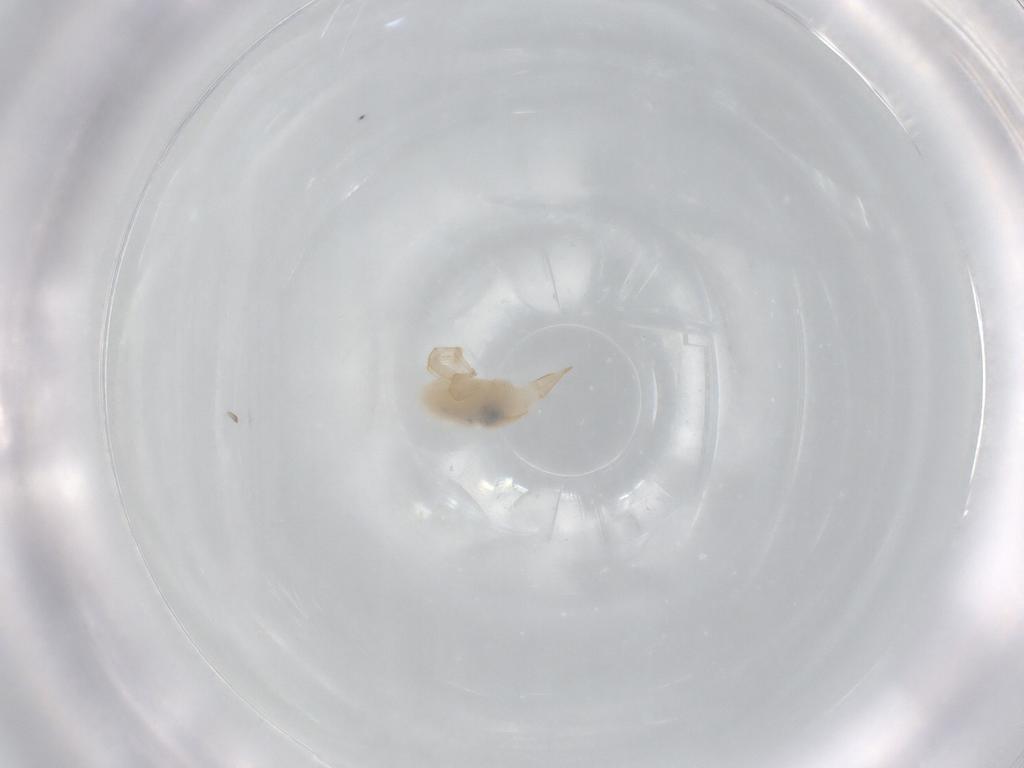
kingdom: Animalia
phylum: Arthropoda
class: Arachnida
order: Trombidiformes
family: Bdellidae
